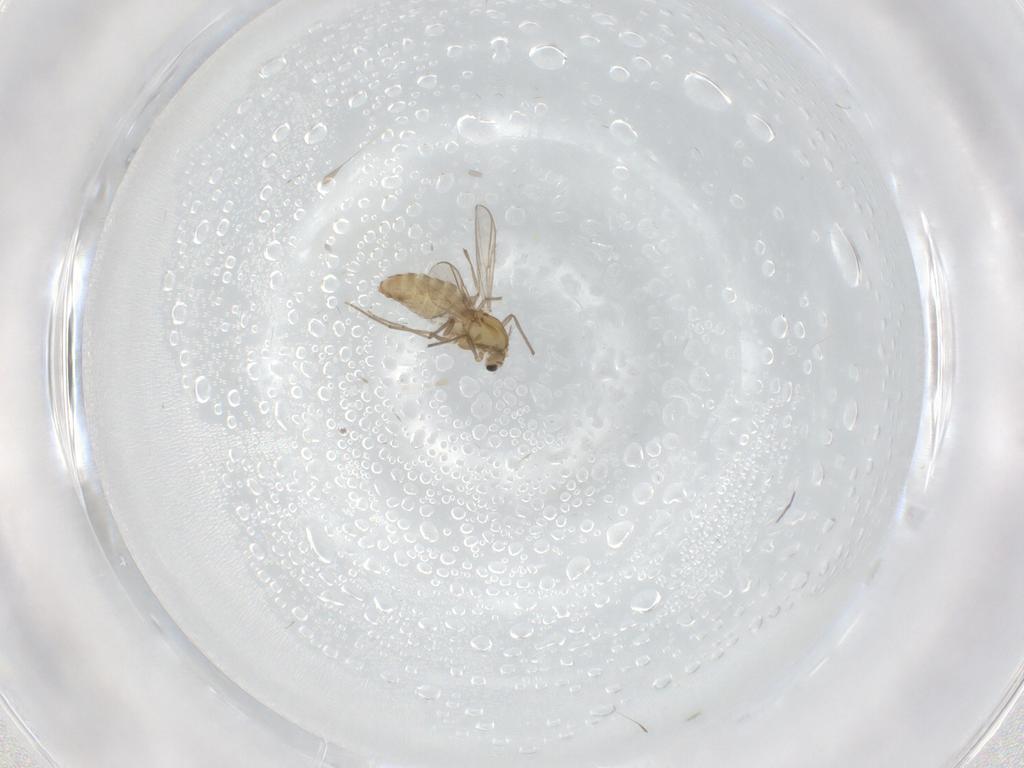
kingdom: Animalia
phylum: Arthropoda
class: Insecta
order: Diptera
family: Chironomidae
